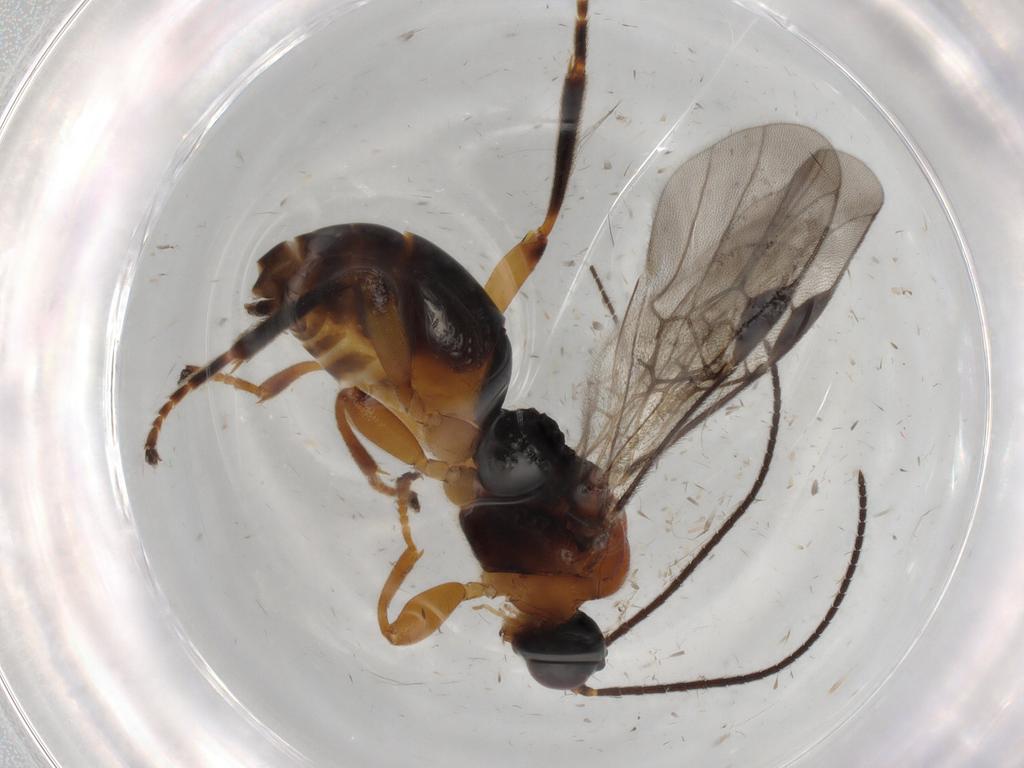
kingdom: Animalia
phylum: Arthropoda
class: Insecta
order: Hymenoptera
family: Braconidae
